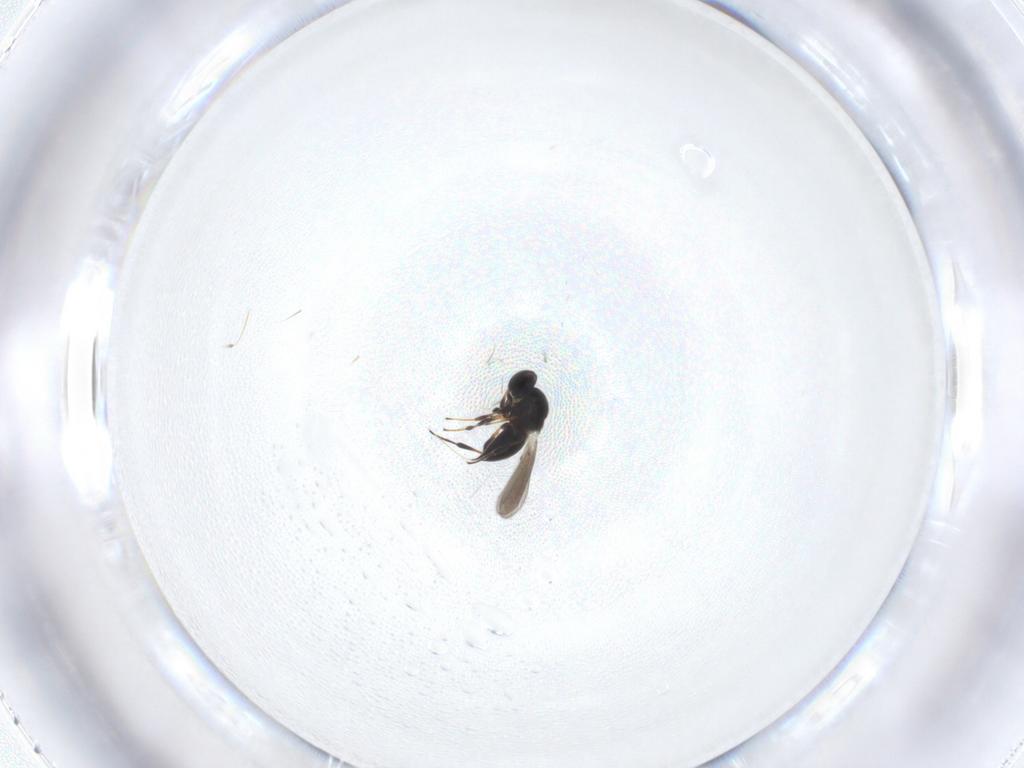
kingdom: Animalia
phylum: Arthropoda
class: Insecta
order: Hymenoptera
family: Platygastridae
